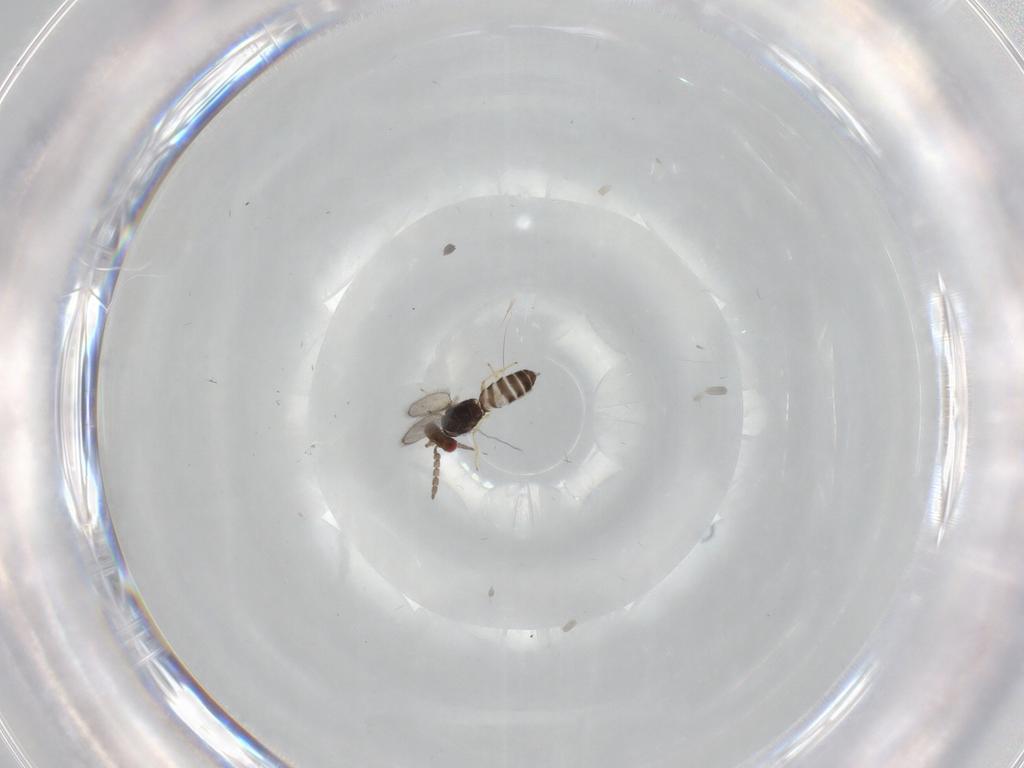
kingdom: Animalia
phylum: Arthropoda
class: Insecta
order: Hymenoptera
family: Eulophidae
